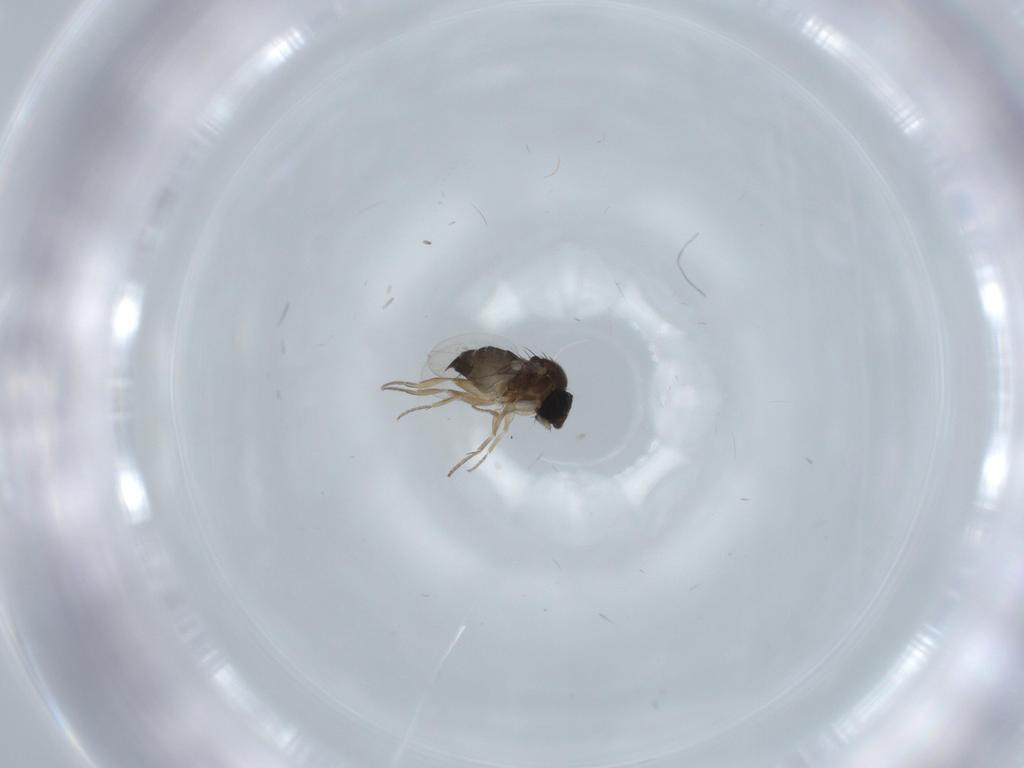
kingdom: Animalia
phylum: Arthropoda
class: Insecta
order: Diptera
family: Phoridae
